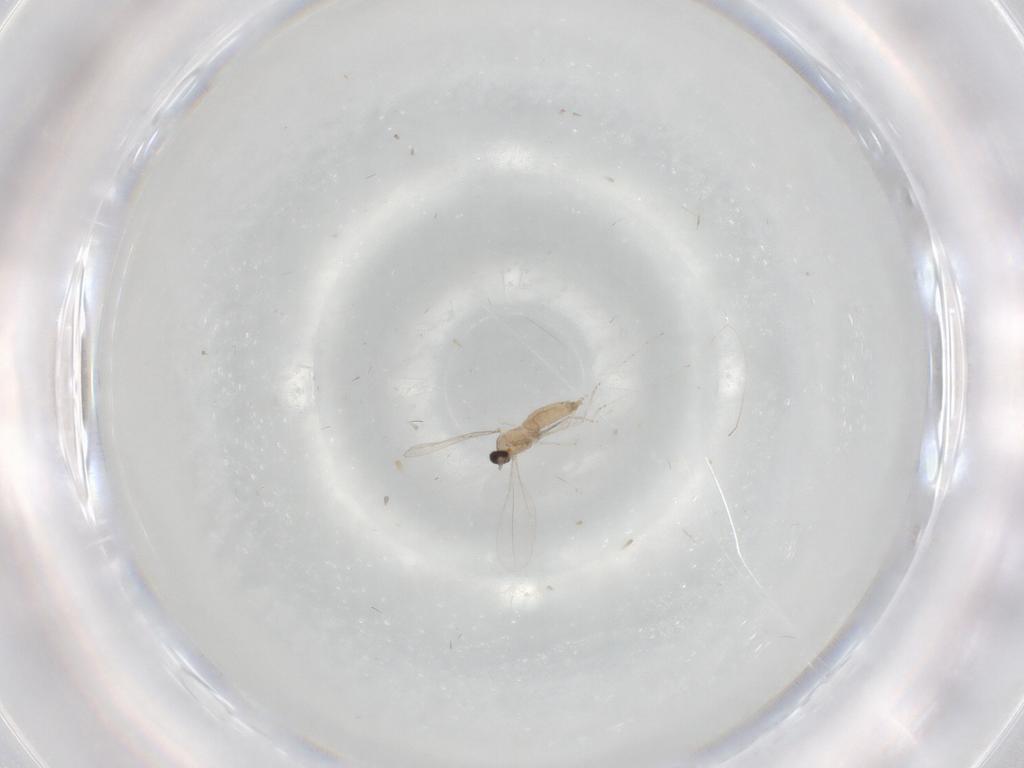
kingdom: Animalia
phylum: Arthropoda
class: Insecta
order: Diptera
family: Cecidomyiidae
